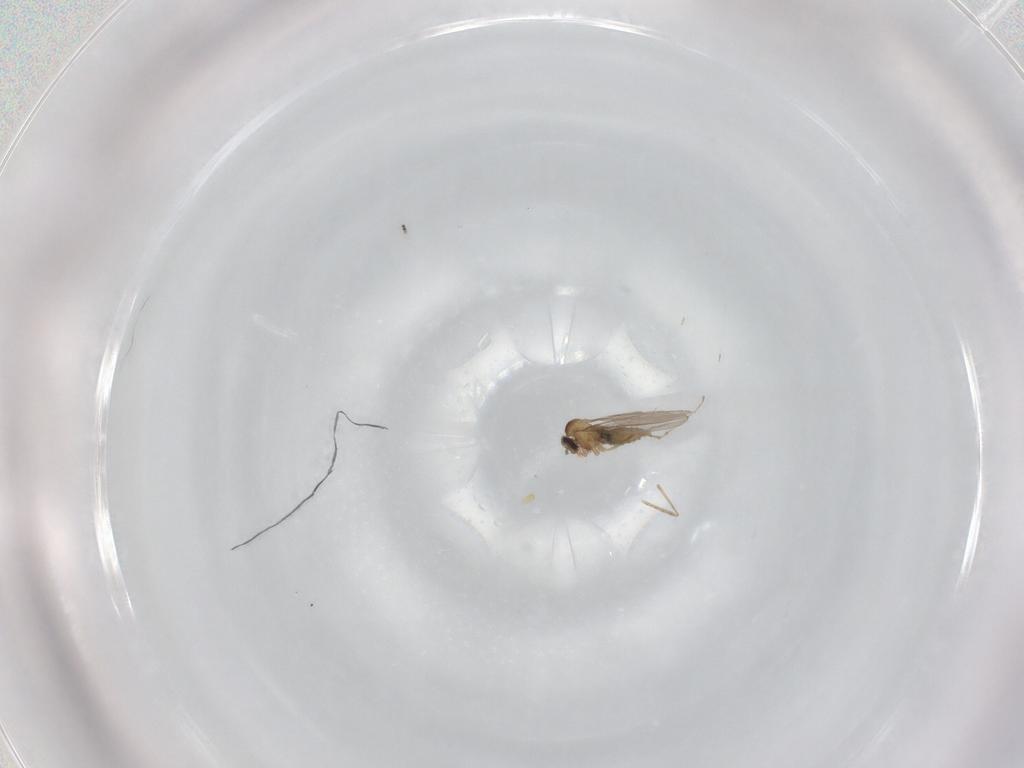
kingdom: Animalia
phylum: Arthropoda
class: Insecta
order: Diptera
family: Stratiomyidae
